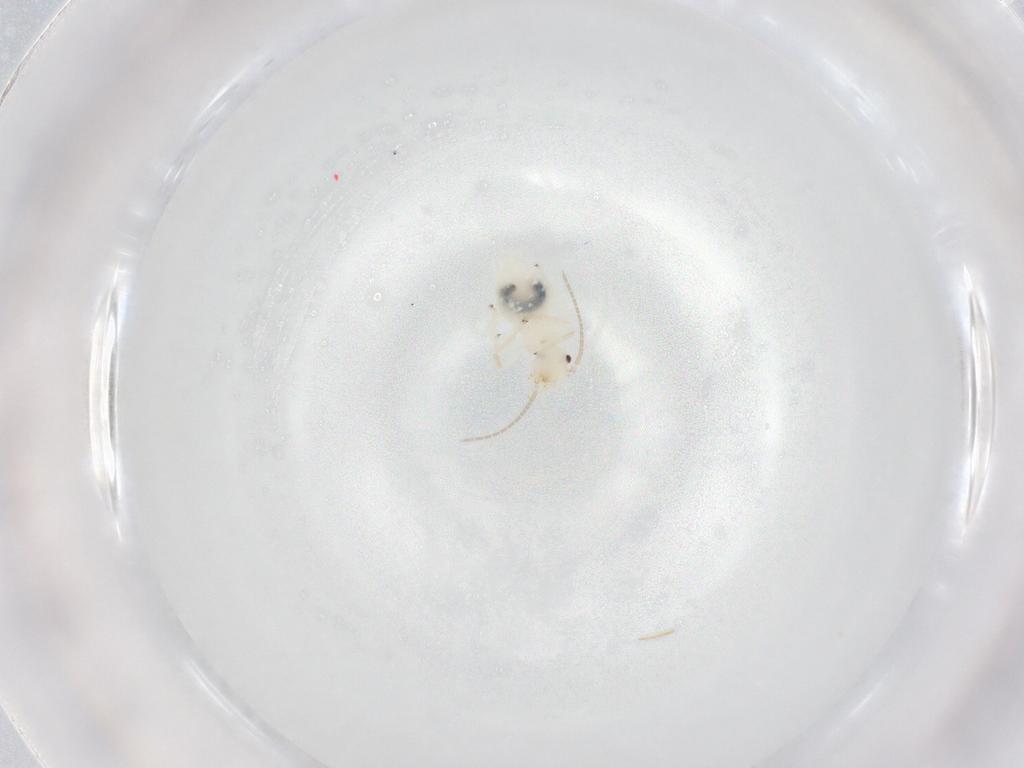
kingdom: Animalia
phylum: Arthropoda
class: Insecta
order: Psocodea
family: Philotarsidae
